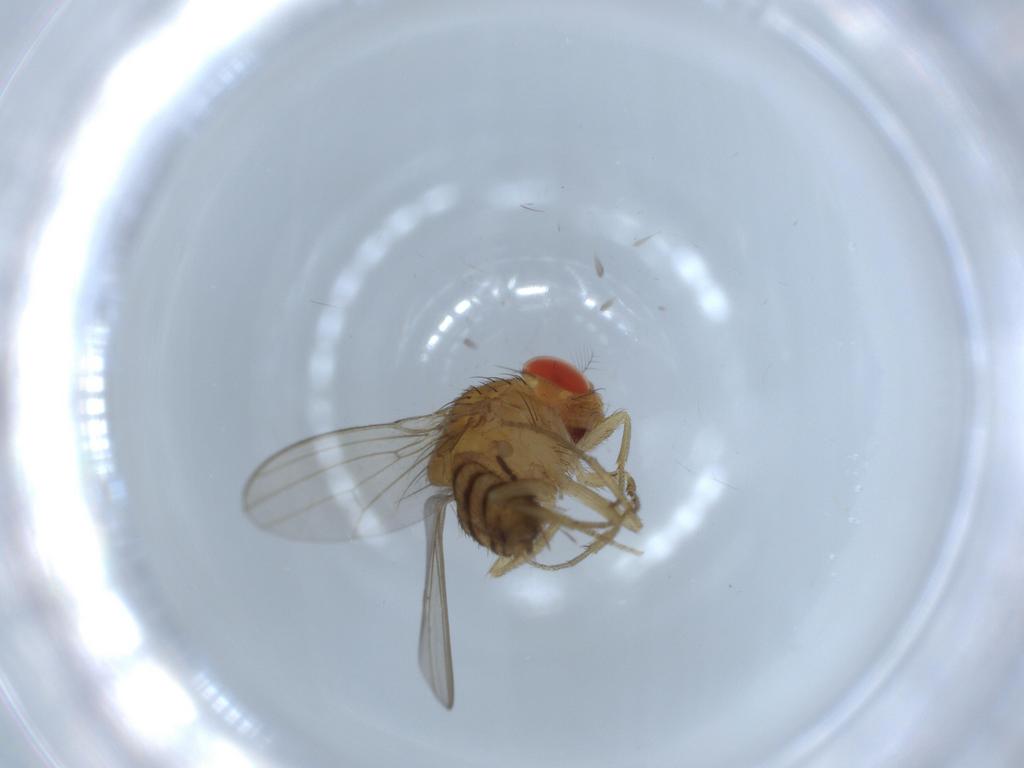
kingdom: Animalia
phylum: Arthropoda
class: Insecta
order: Diptera
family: Drosophilidae
